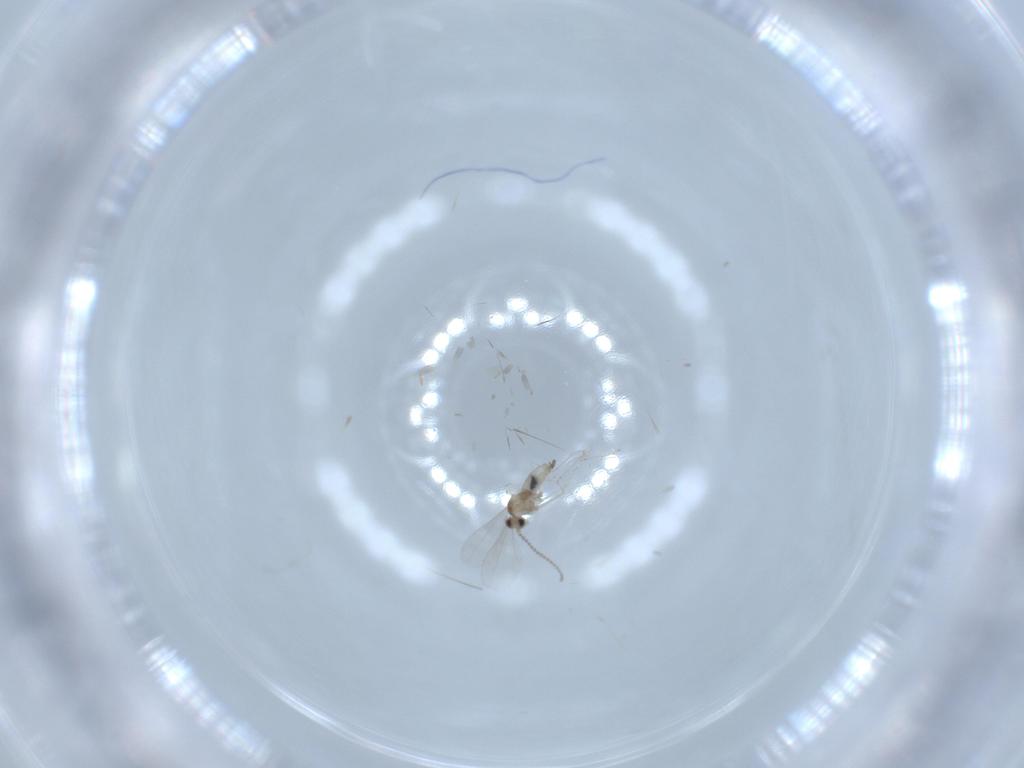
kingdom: Animalia
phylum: Arthropoda
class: Insecta
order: Diptera
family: Cecidomyiidae
